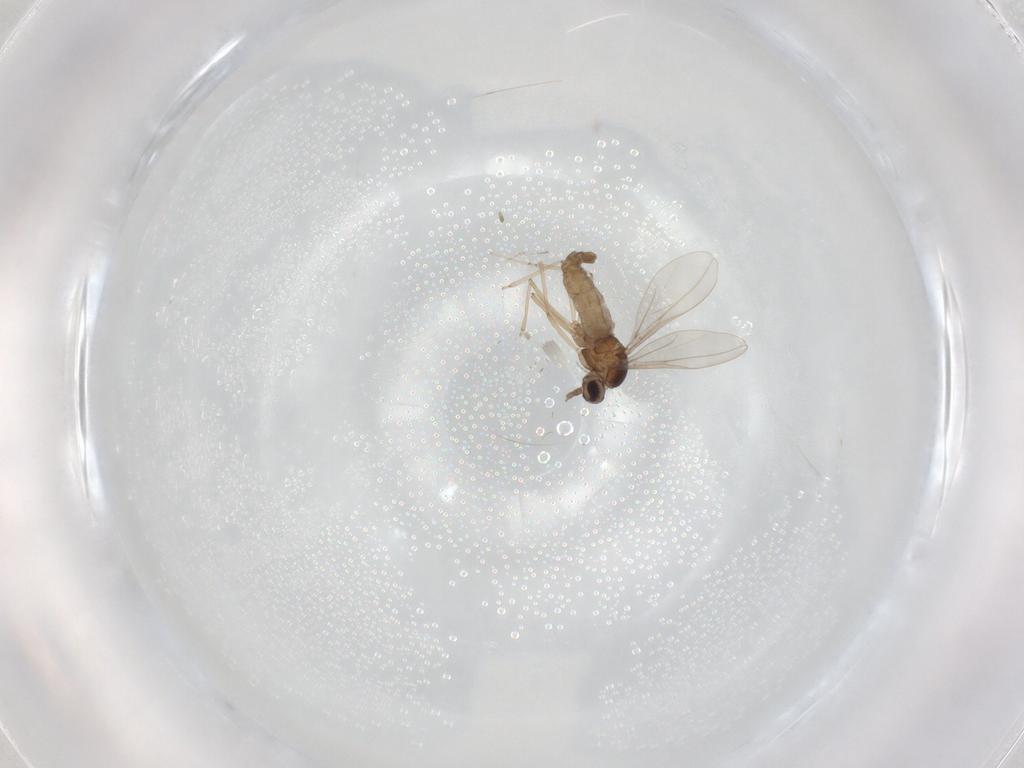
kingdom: Animalia
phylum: Arthropoda
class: Insecta
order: Diptera
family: Cecidomyiidae
